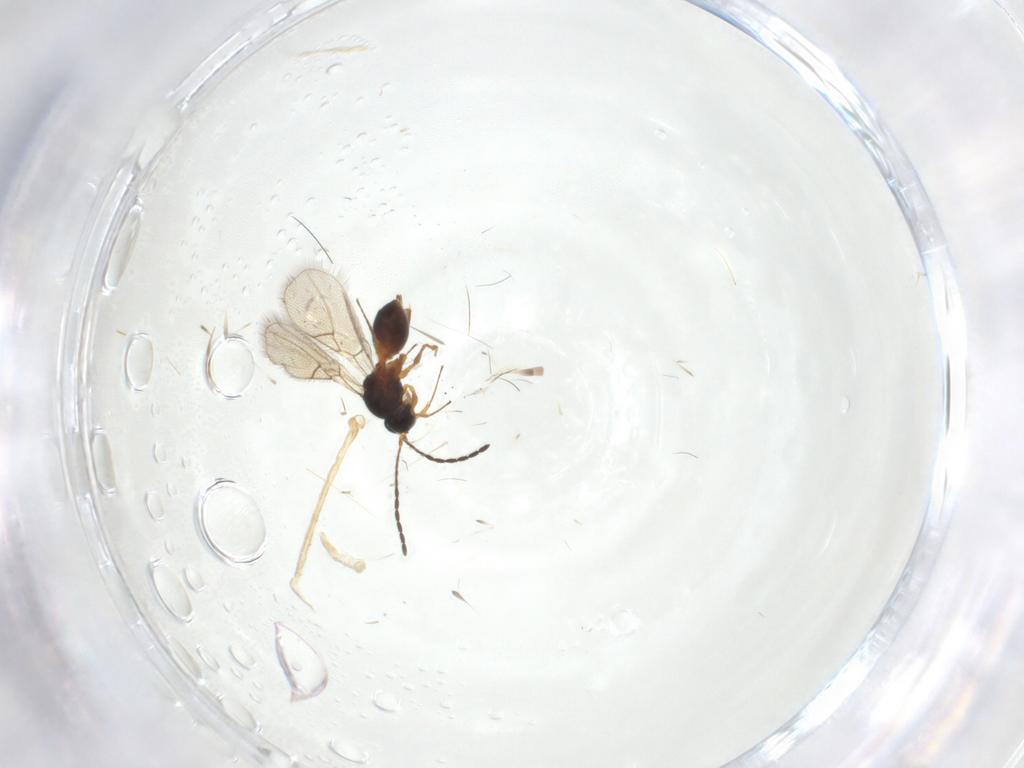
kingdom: Animalia
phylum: Arthropoda
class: Insecta
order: Hymenoptera
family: Figitidae
